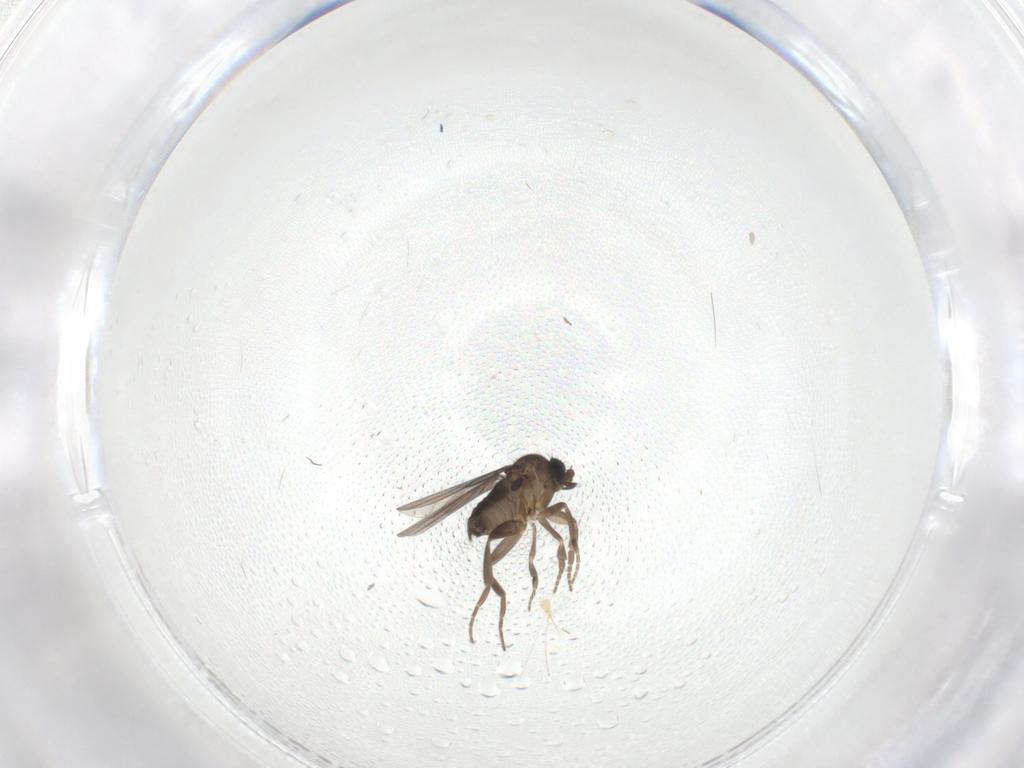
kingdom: Animalia
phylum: Arthropoda
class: Insecta
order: Diptera
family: Phoridae
